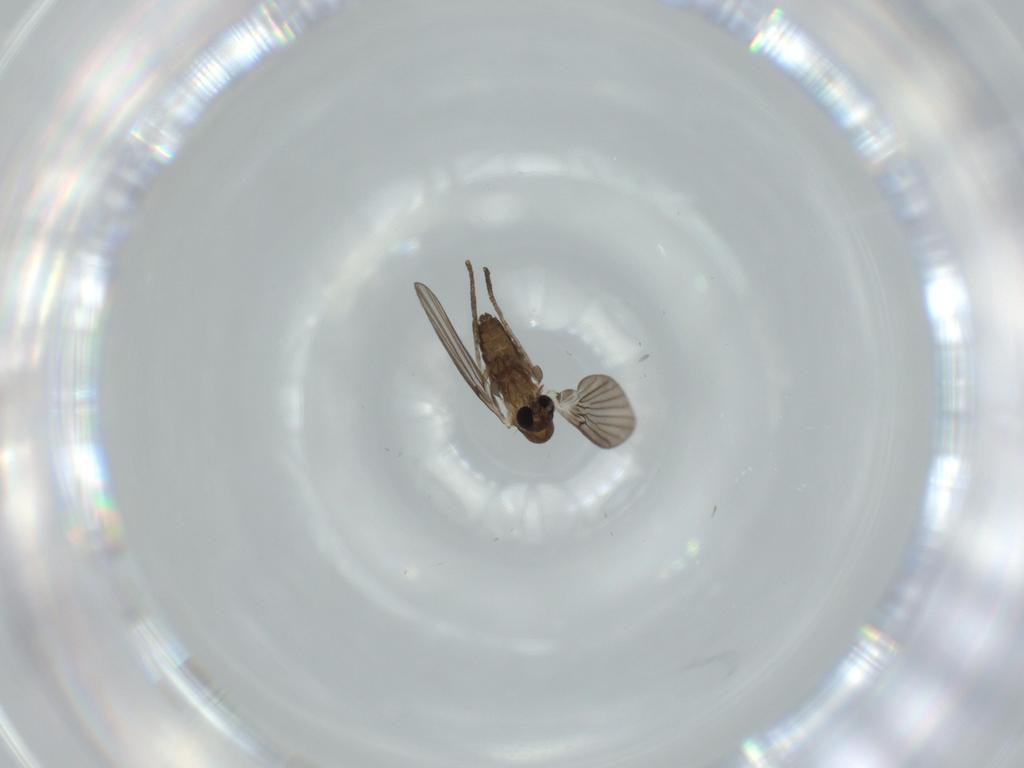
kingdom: Animalia
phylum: Arthropoda
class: Insecta
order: Diptera
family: Psychodidae
